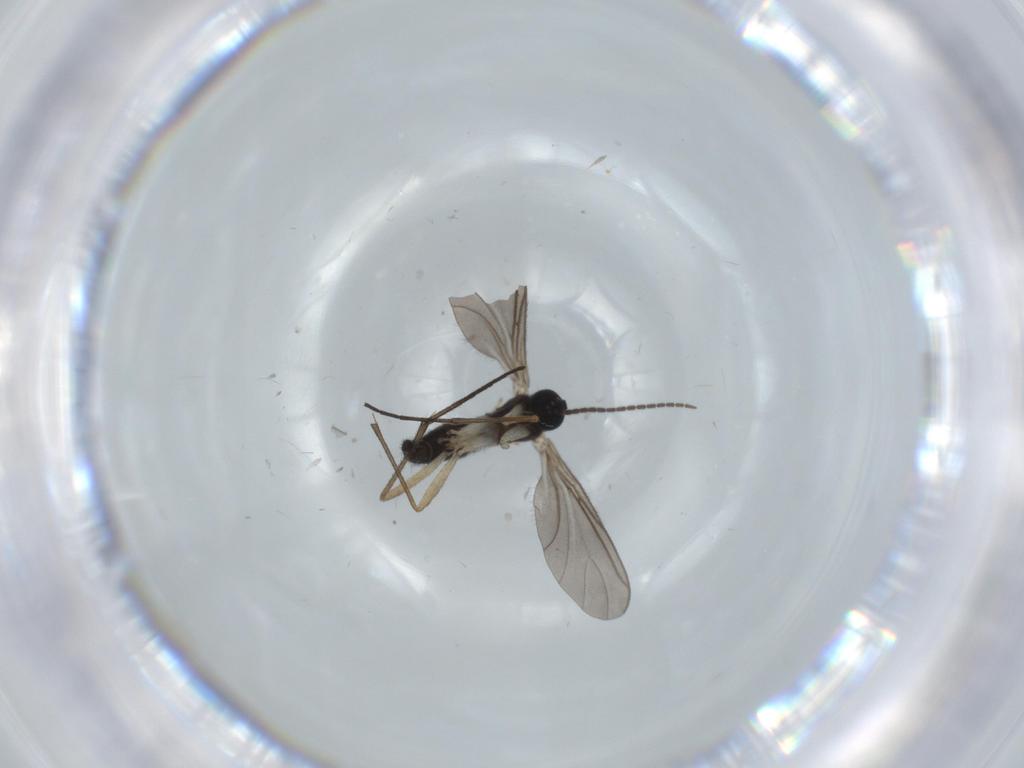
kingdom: Animalia
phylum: Arthropoda
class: Insecta
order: Diptera
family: Sciaridae
